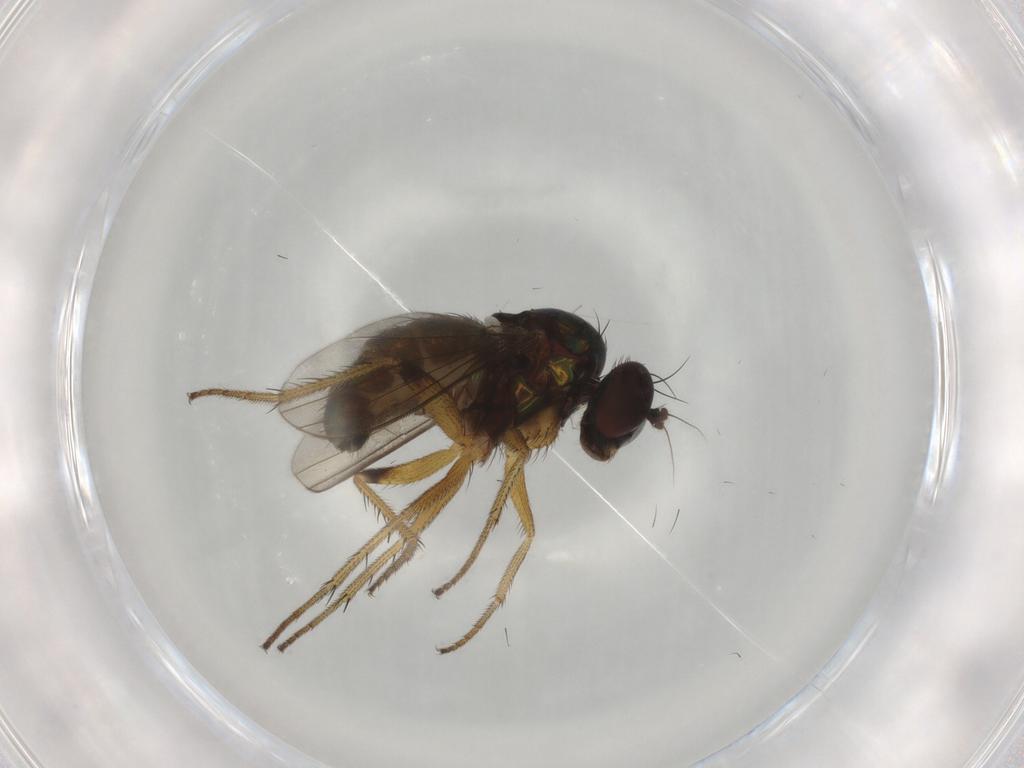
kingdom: Animalia
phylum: Arthropoda
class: Insecta
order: Diptera
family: Dolichopodidae
